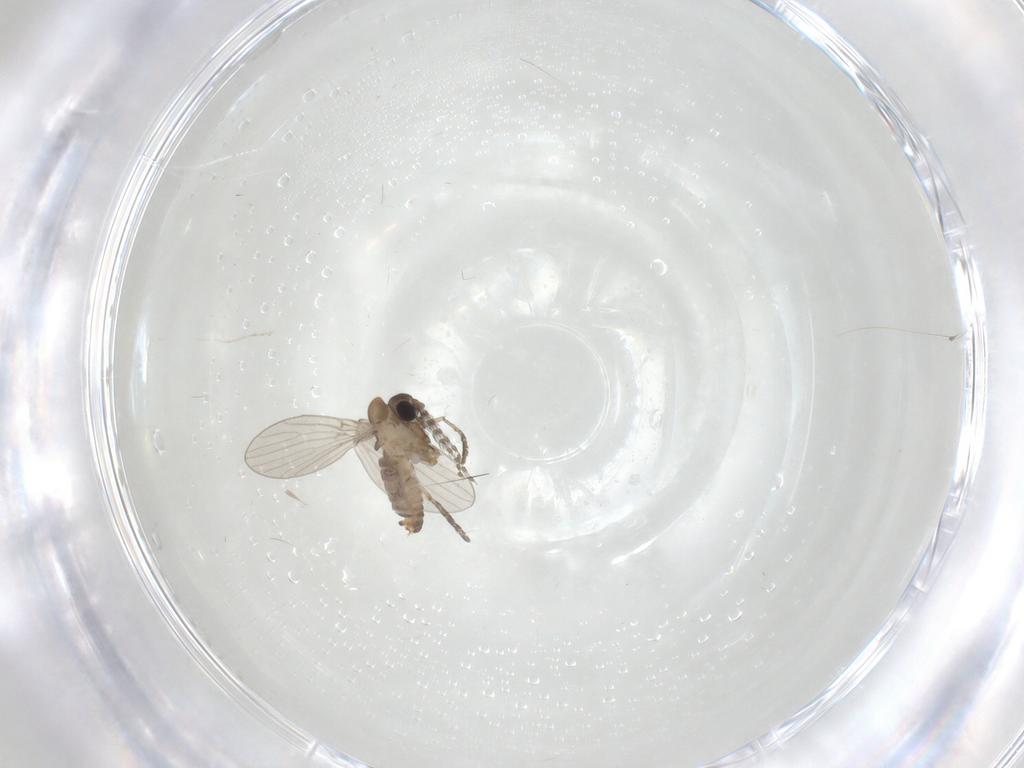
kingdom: Animalia
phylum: Arthropoda
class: Insecta
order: Diptera
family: Psychodidae
